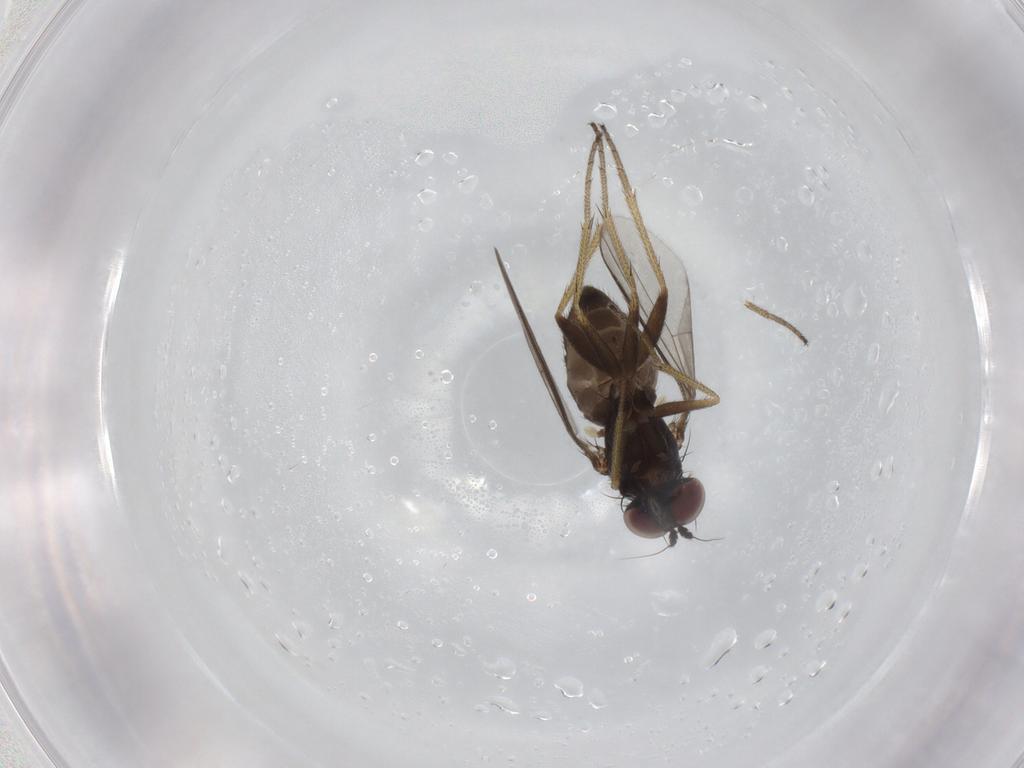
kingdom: Animalia
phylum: Arthropoda
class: Insecta
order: Diptera
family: Dolichopodidae
